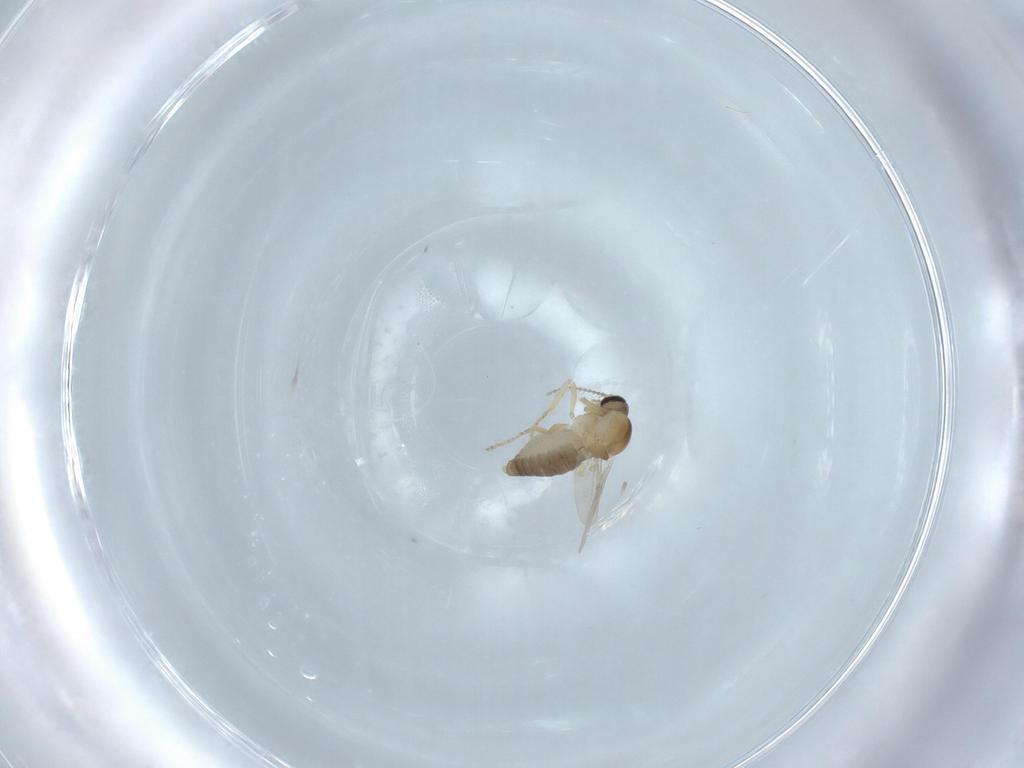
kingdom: Animalia
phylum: Arthropoda
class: Insecta
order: Diptera
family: Ceratopogonidae
